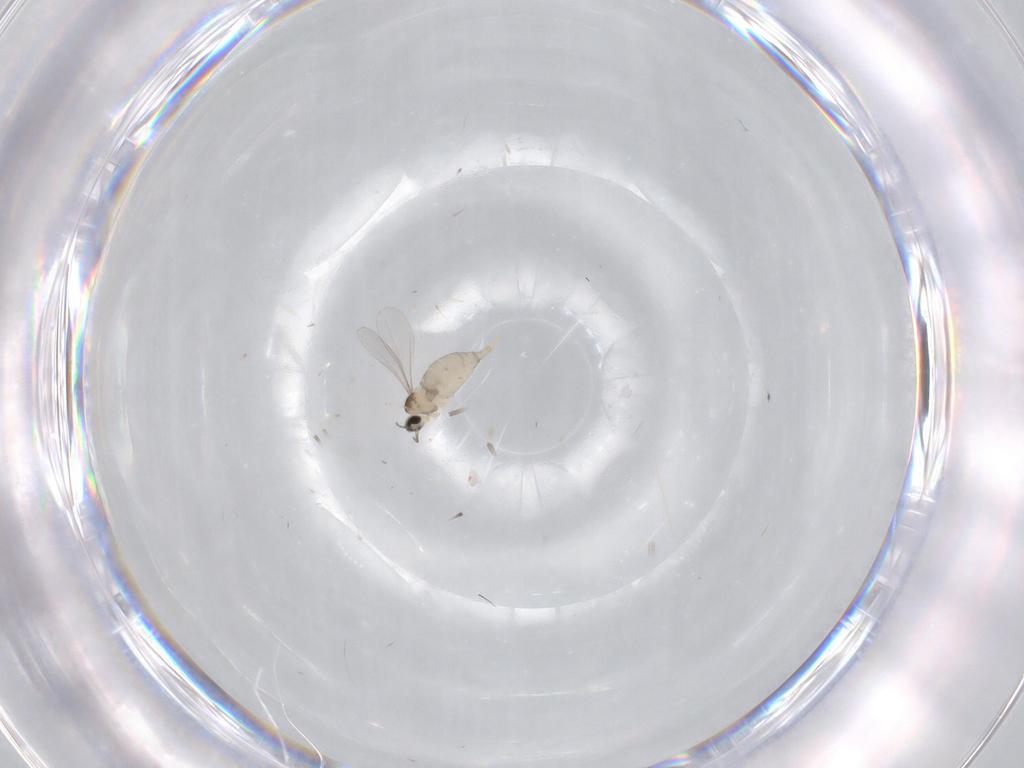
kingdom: Animalia
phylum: Arthropoda
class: Insecta
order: Diptera
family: Cecidomyiidae
